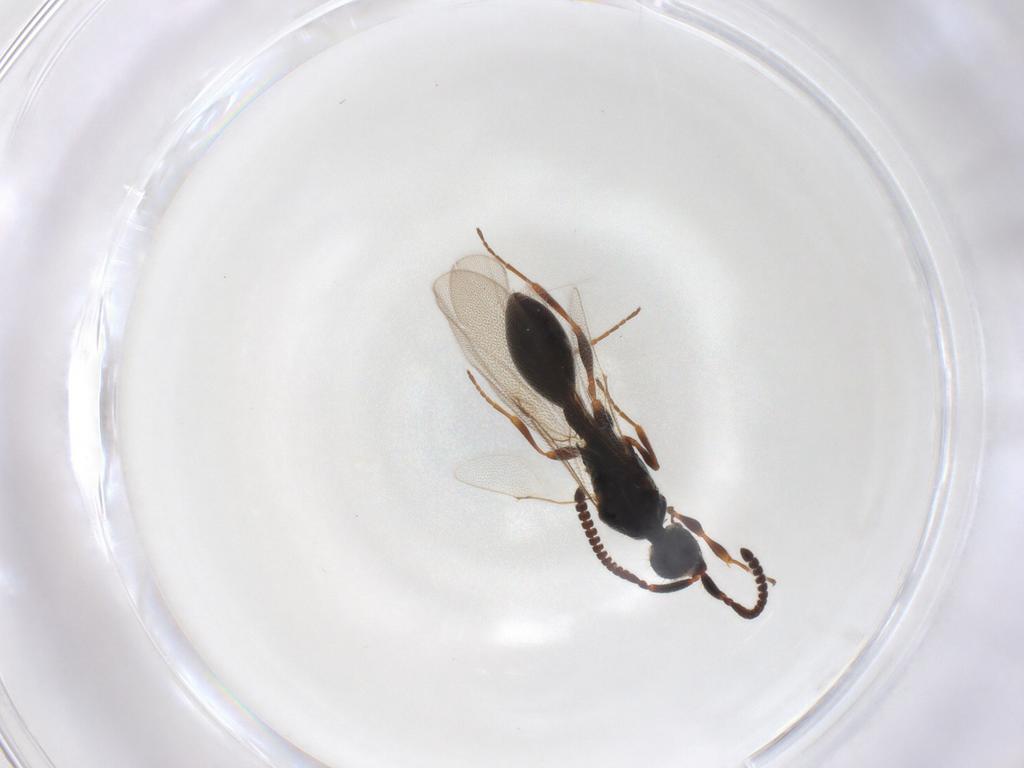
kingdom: Animalia
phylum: Arthropoda
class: Insecta
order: Hymenoptera
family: Diapriidae
